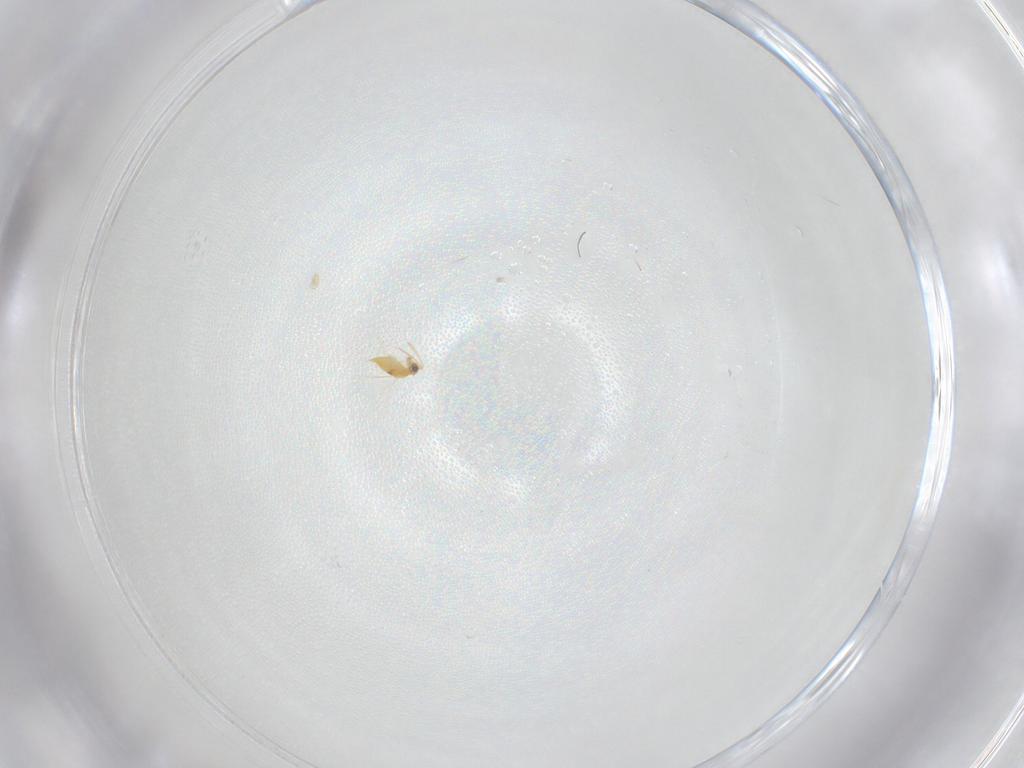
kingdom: Animalia
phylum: Arthropoda
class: Insecta
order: Hymenoptera
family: Aphelinidae
